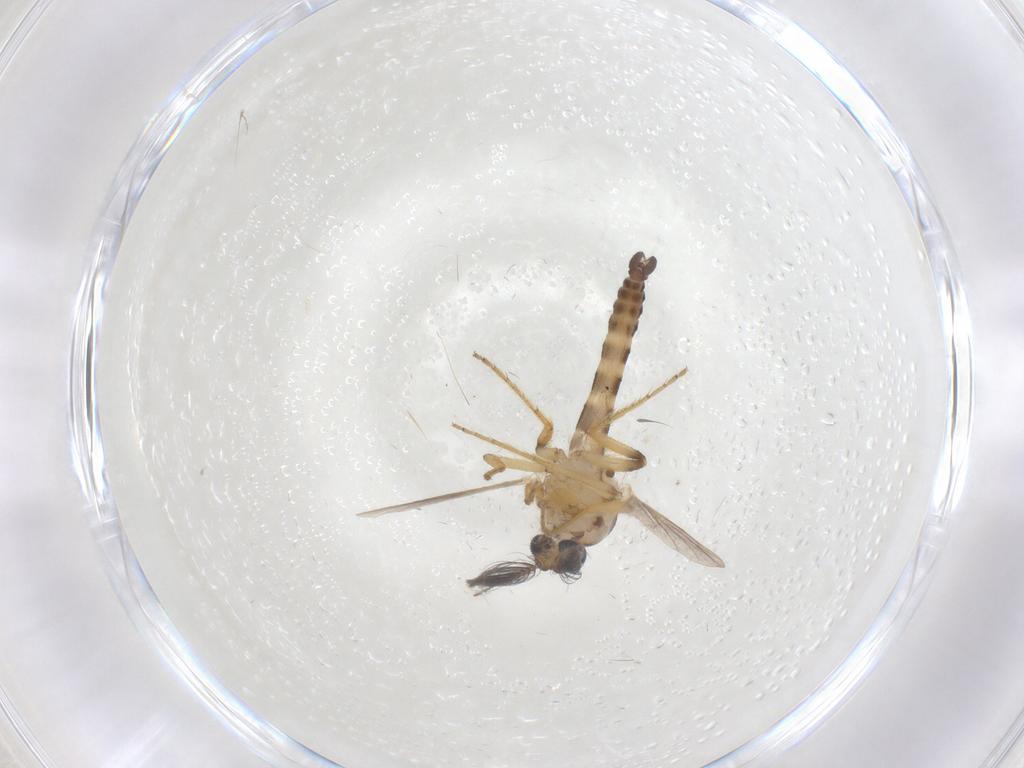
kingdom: Animalia
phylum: Arthropoda
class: Insecta
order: Diptera
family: Ceratopogonidae
